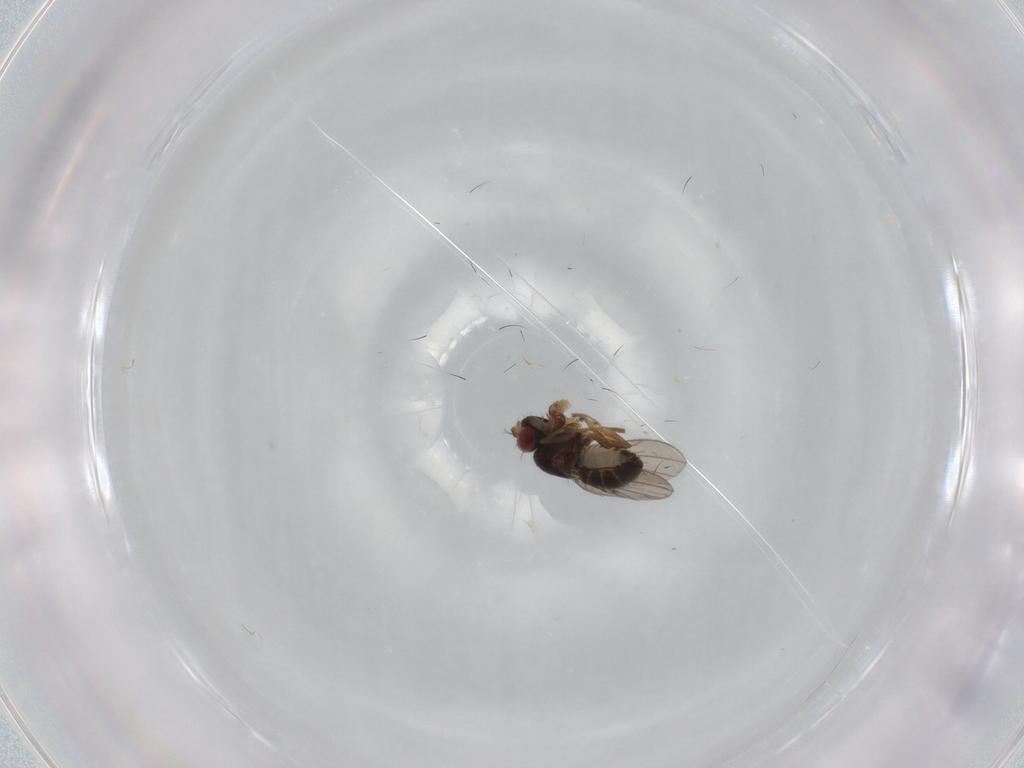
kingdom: Animalia
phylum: Arthropoda
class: Insecta
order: Diptera
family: Ephydridae
